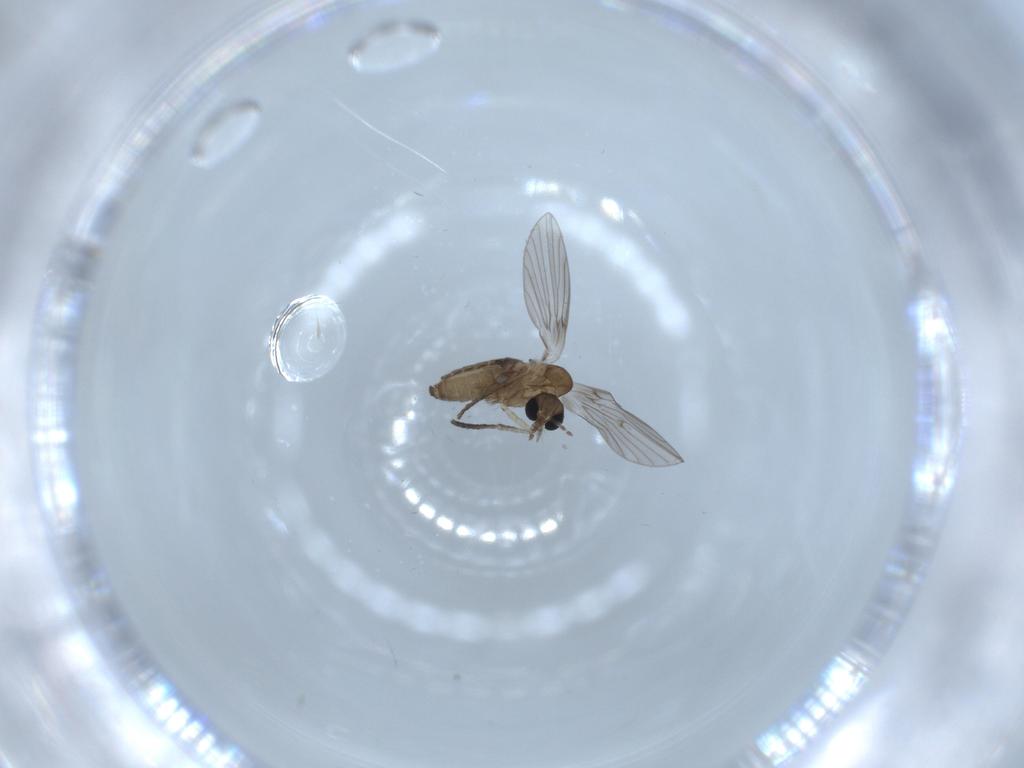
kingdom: Animalia
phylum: Arthropoda
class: Insecta
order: Diptera
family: Psychodidae
